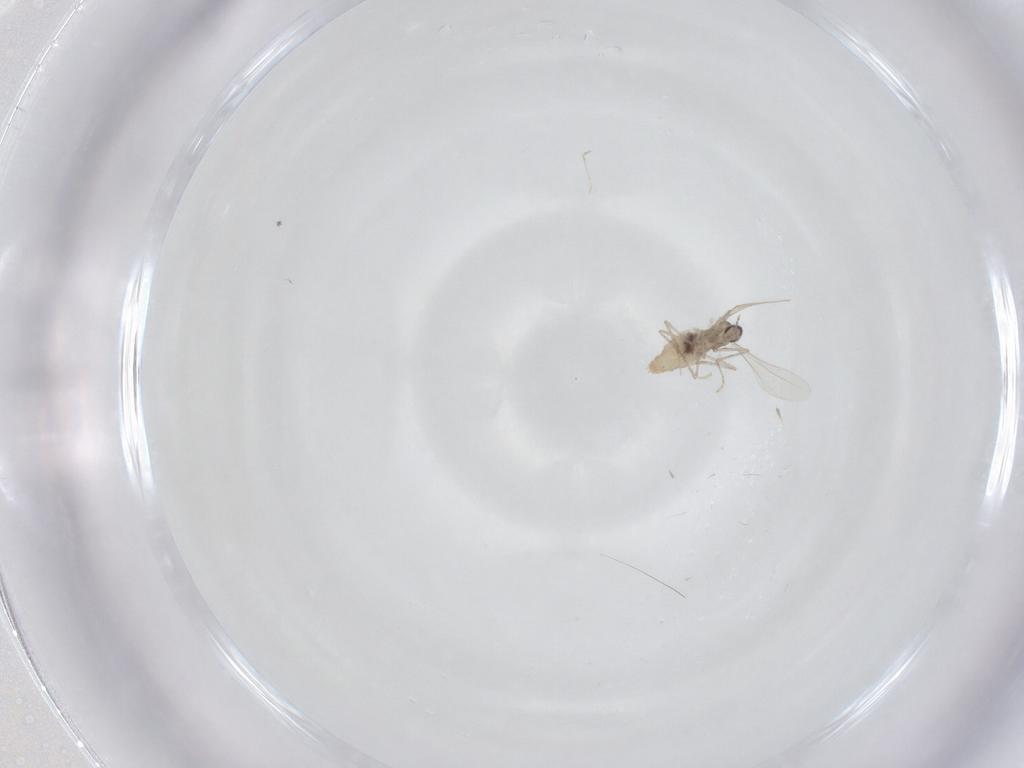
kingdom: Animalia
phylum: Arthropoda
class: Insecta
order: Diptera
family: Cecidomyiidae
